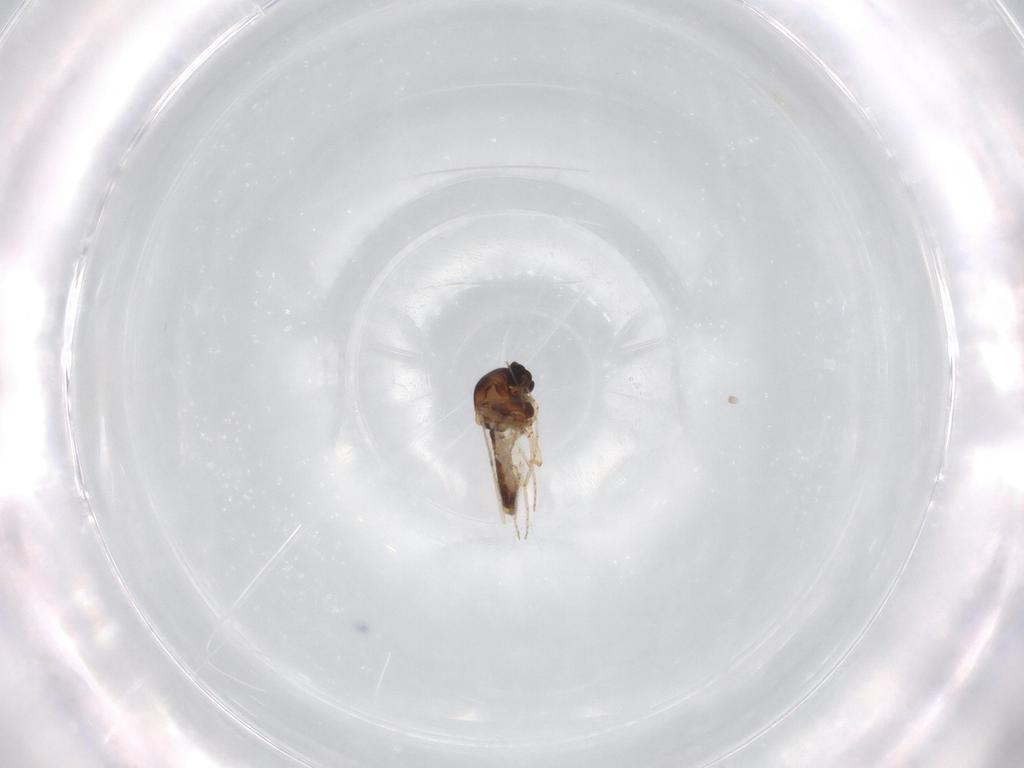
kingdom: Animalia
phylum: Arthropoda
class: Insecta
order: Diptera
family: Ceratopogonidae
